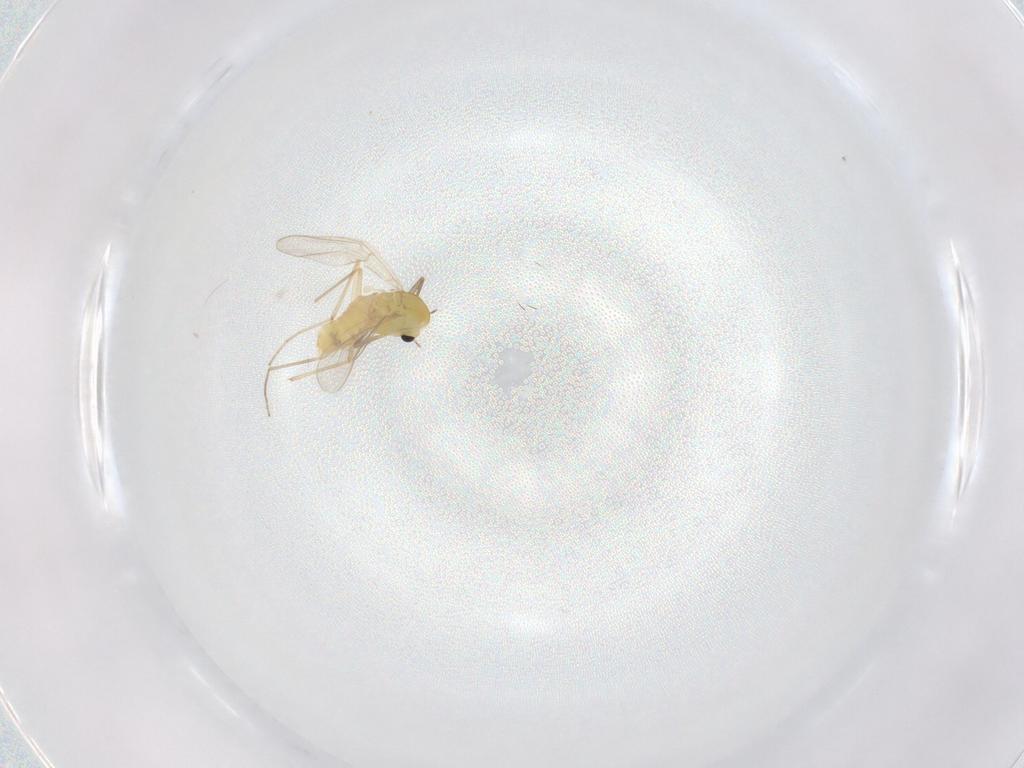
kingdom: Animalia
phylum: Arthropoda
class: Insecta
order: Diptera
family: Chironomidae
